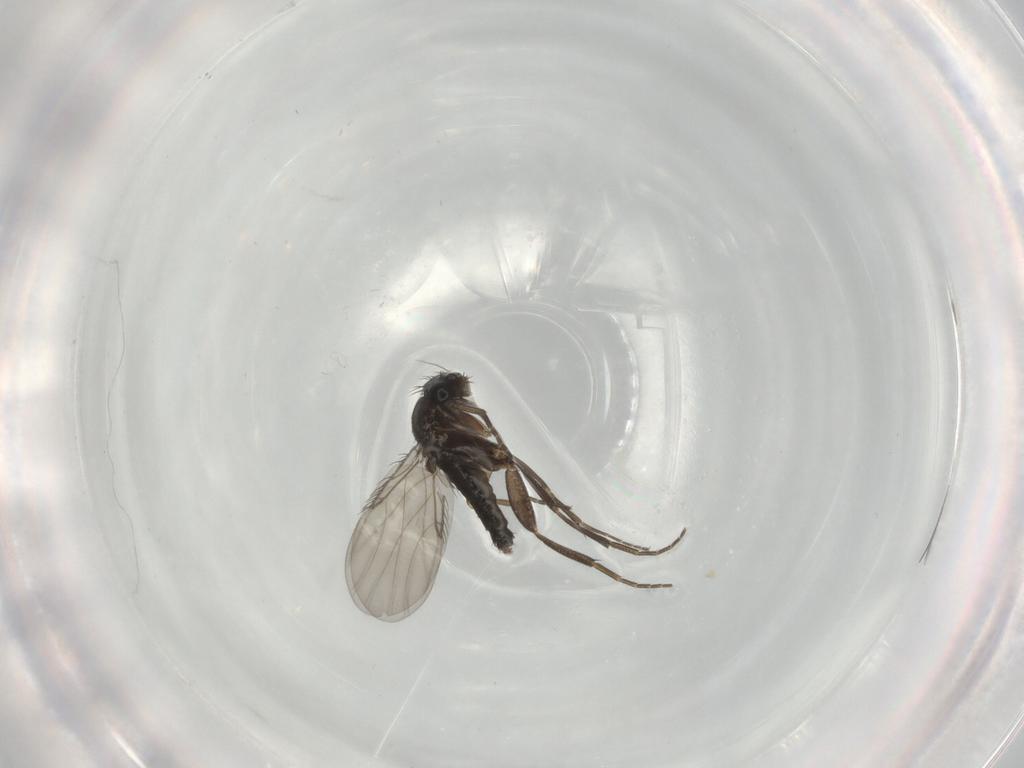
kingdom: Animalia
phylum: Arthropoda
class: Insecta
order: Diptera
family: Phoridae
